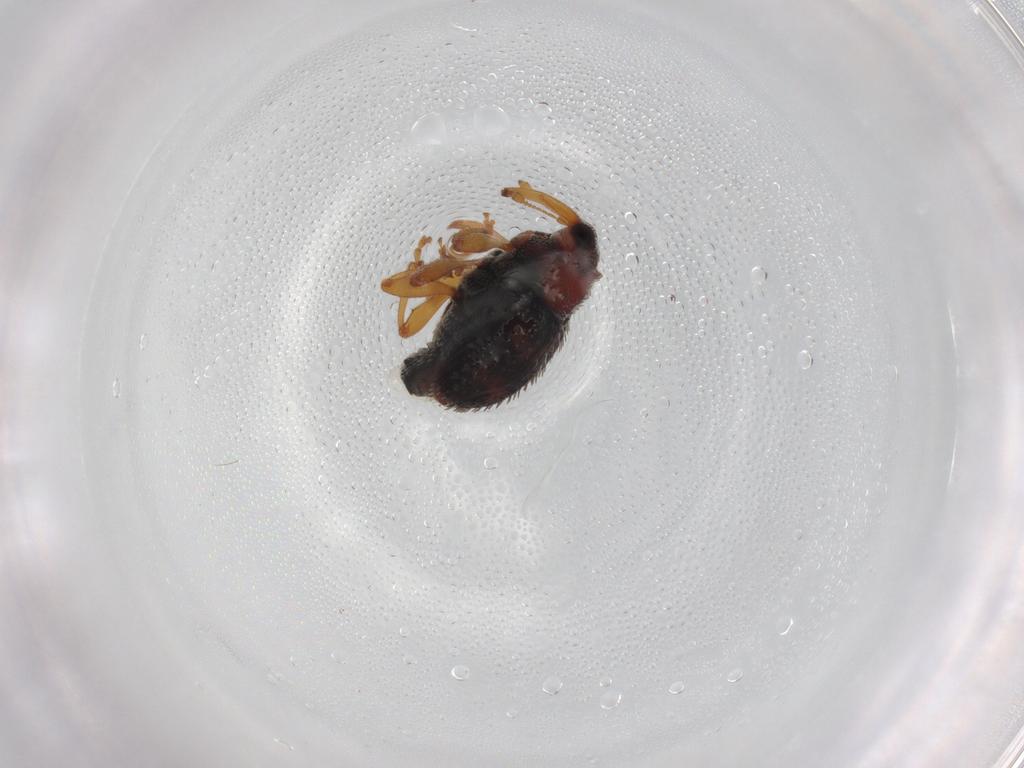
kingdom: Animalia
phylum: Arthropoda
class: Insecta
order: Coleoptera
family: Curculionidae
